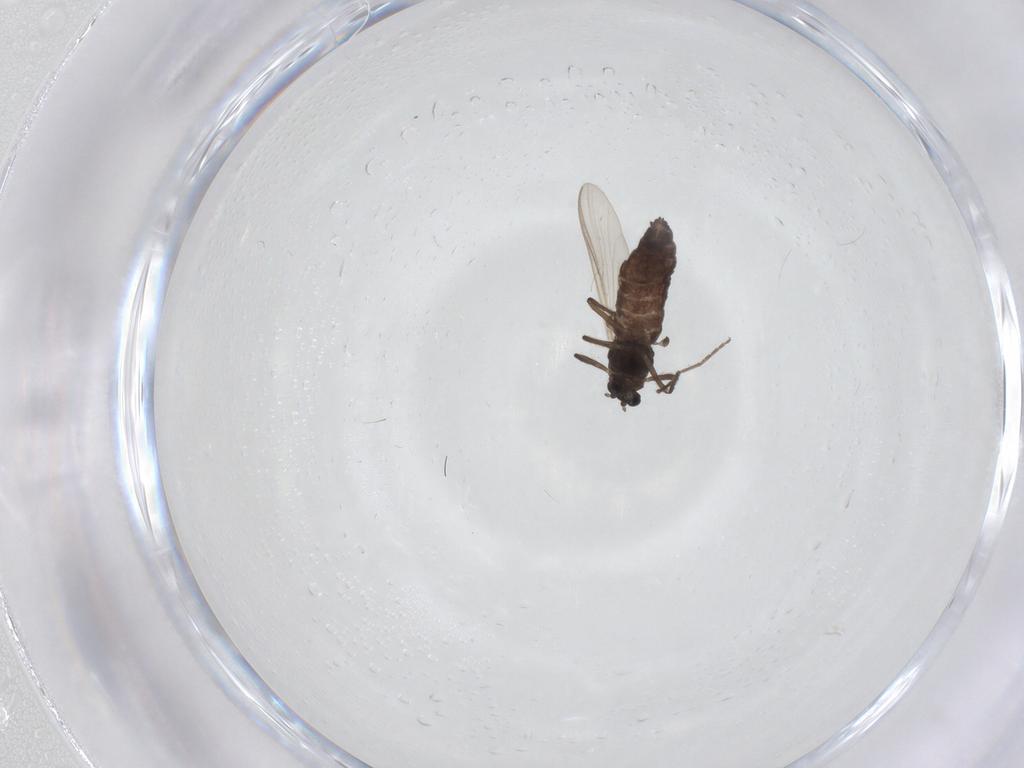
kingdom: Animalia
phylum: Arthropoda
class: Insecta
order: Diptera
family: Chironomidae
